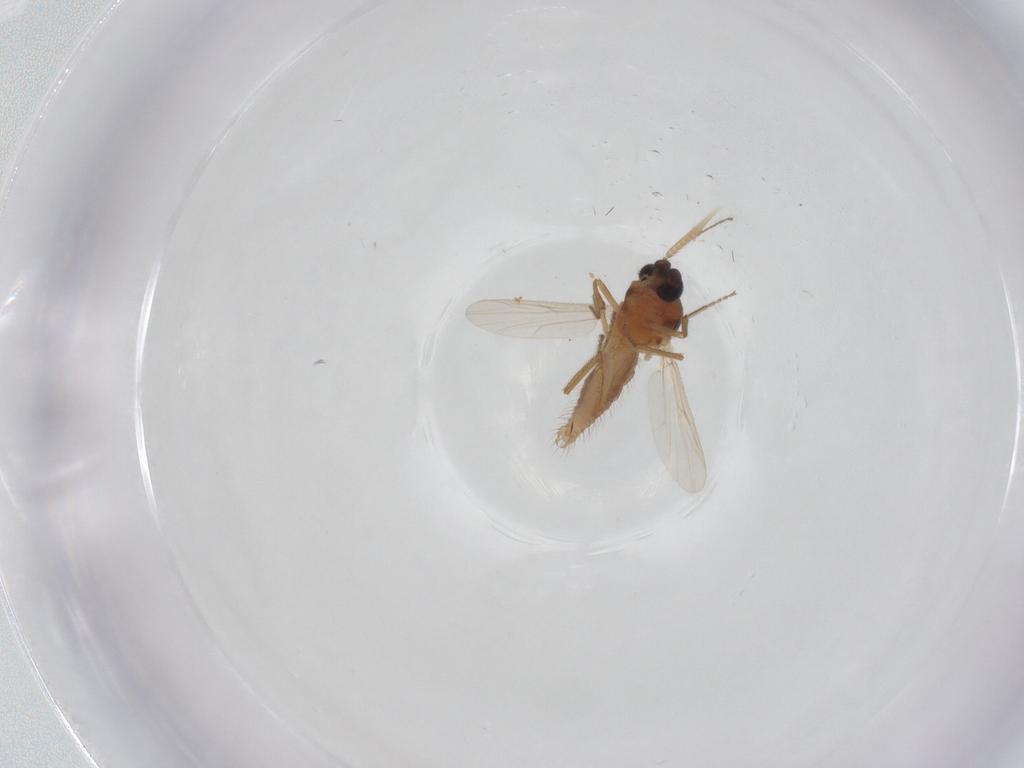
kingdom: Animalia
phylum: Arthropoda
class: Insecta
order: Diptera
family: Ceratopogonidae
